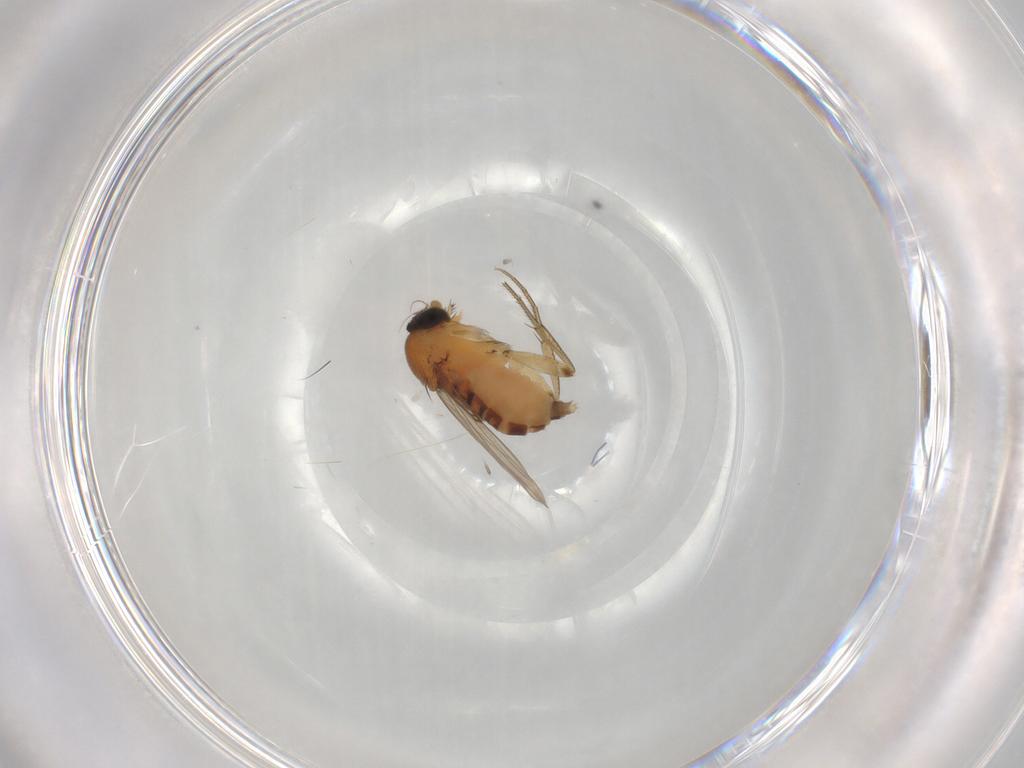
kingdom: Animalia
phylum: Arthropoda
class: Insecta
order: Diptera
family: Phoridae
